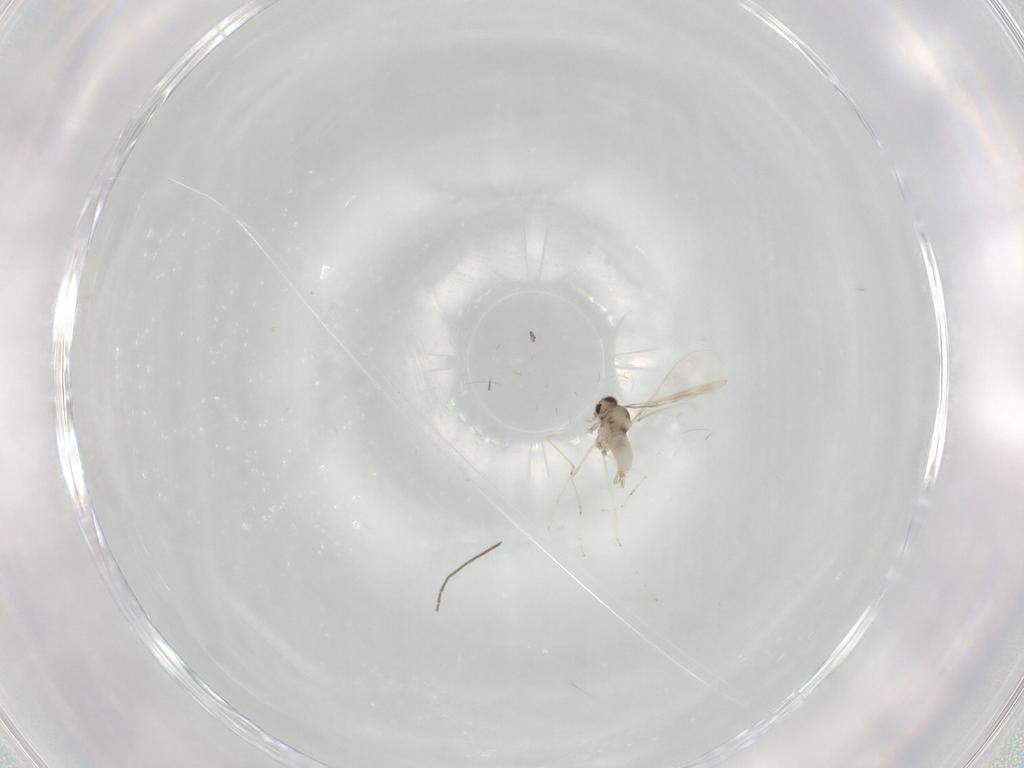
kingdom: Animalia
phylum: Arthropoda
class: Insecta
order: Diptera
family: Cecidomyiidae
